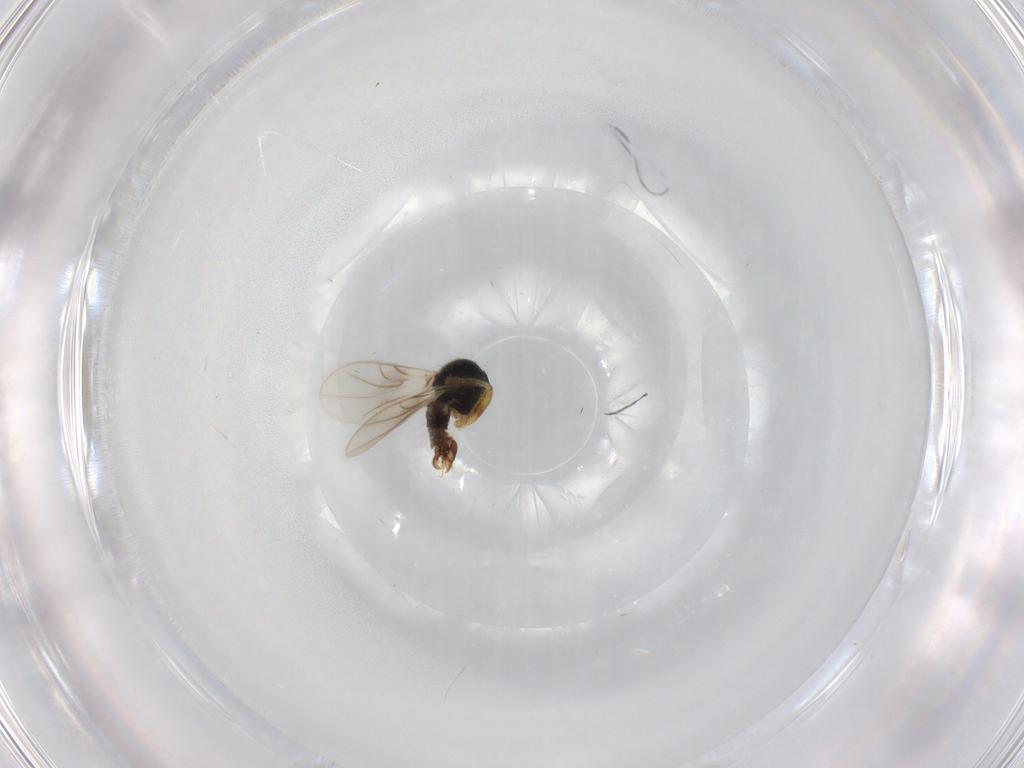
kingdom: Animalia
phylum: Arthropoda
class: Insecta
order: Diptera
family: Hybotidae
